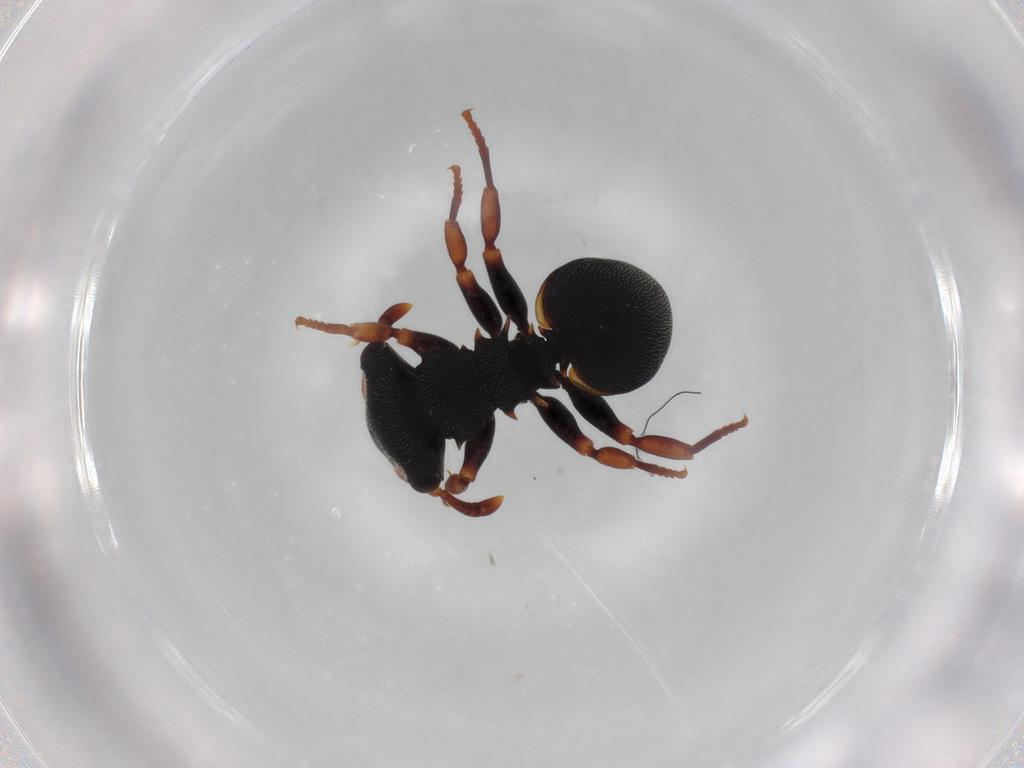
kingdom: Animalia
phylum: Arthropoda
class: Insecta
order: Hymenoptera
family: Formicidae
